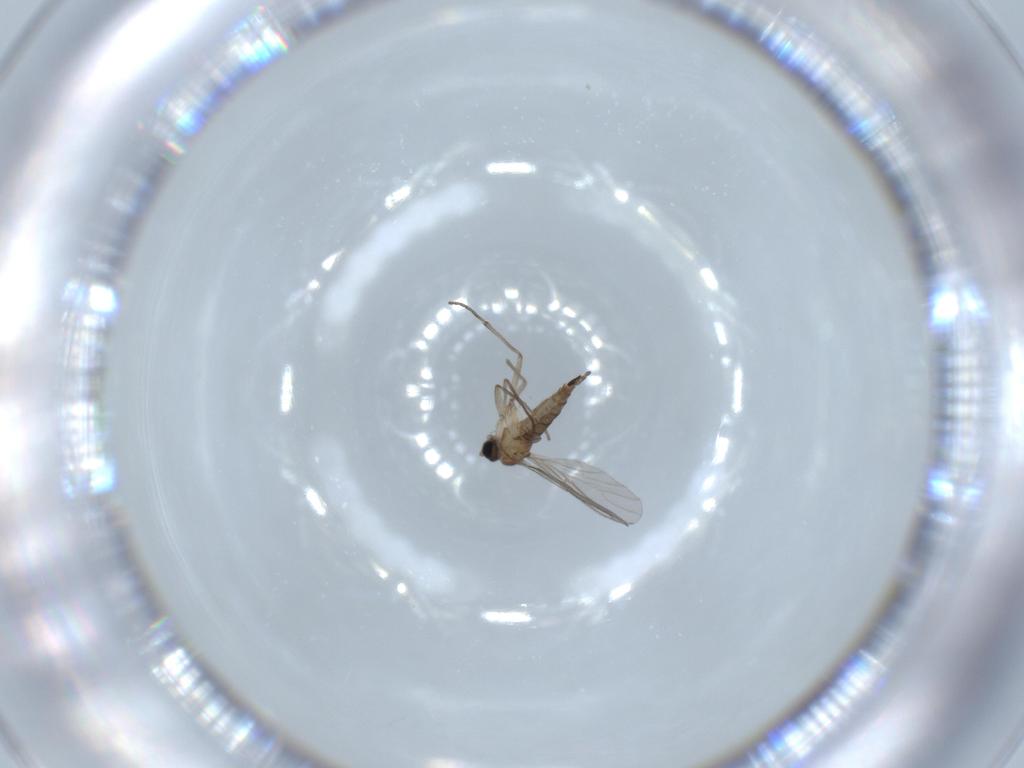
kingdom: Animalia
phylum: Arthropoda
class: Insecta
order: Diptera
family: Sciaridae
